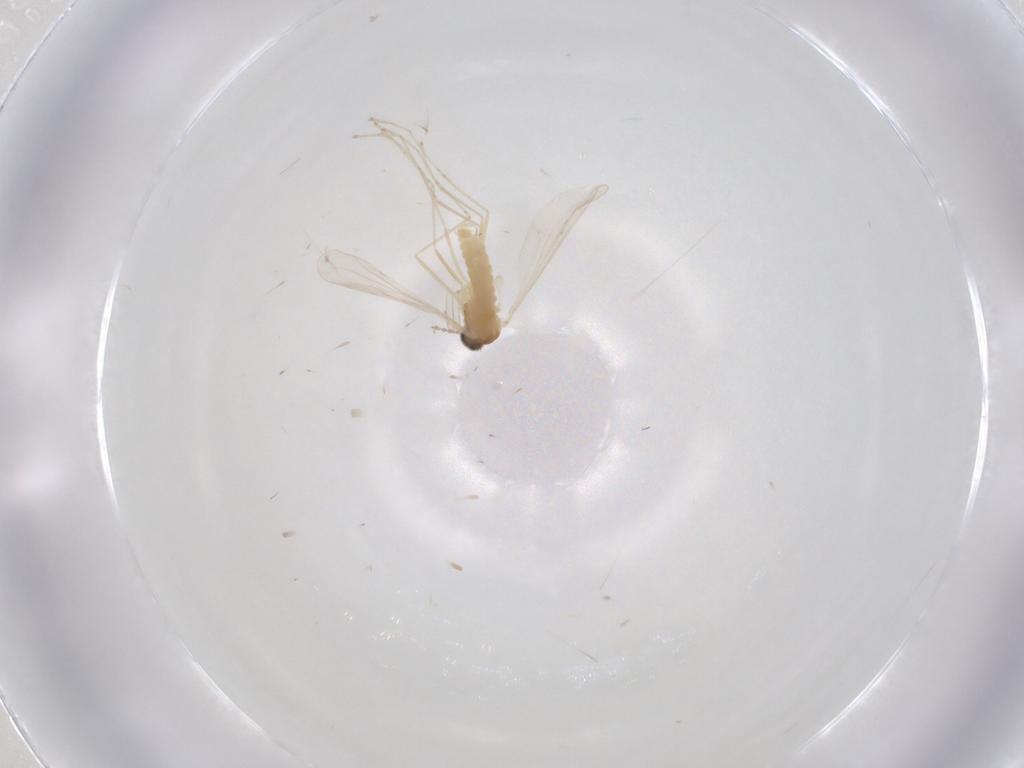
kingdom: Animalia
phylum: Arthropoda
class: Insecta
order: Diptera
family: Cecidomyiidae
